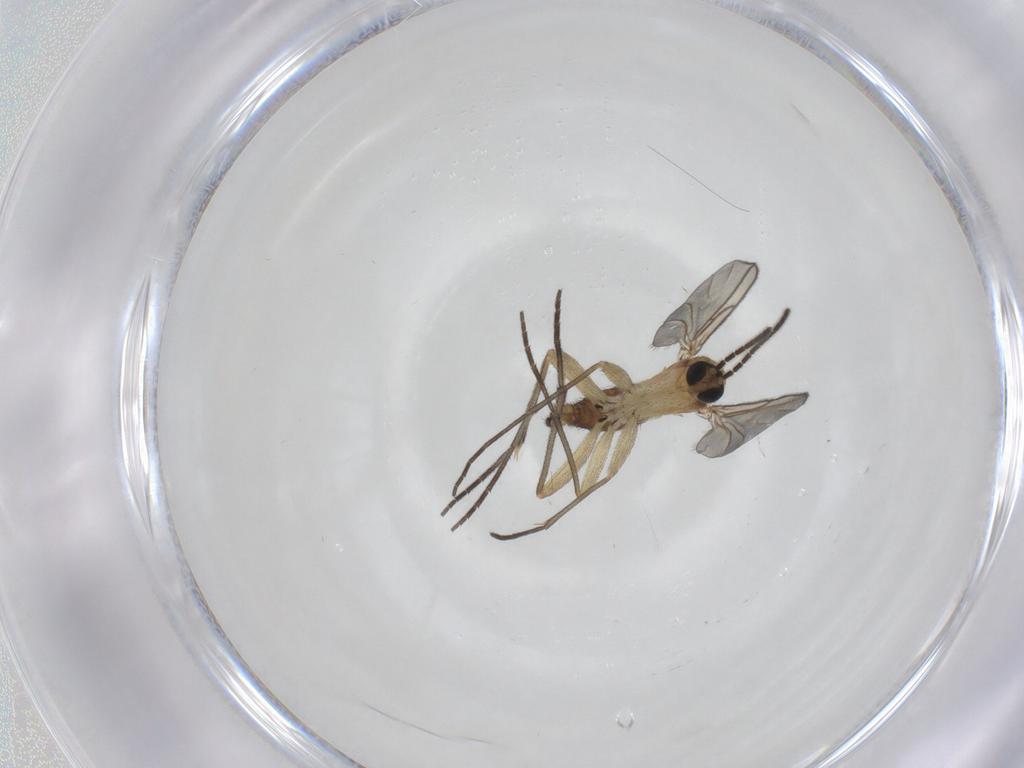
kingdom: Animalia
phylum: Arthropoda
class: Insecta
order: Diptera
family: Sciaridae
